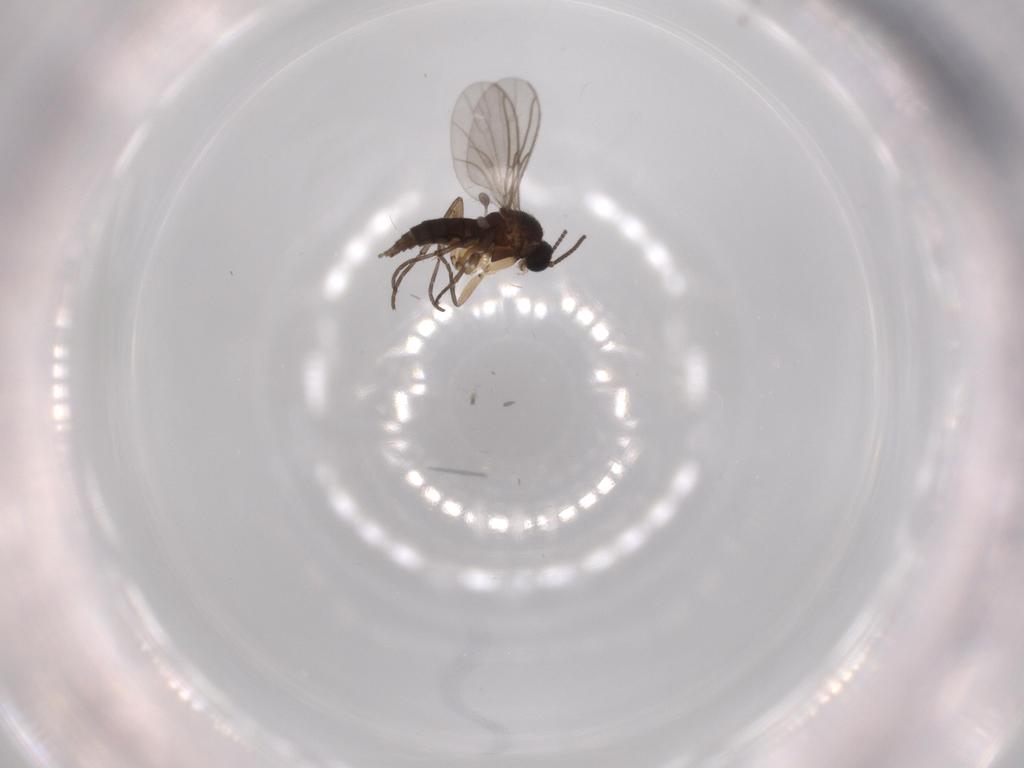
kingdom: Animalia
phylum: Arthropoda
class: Insecta
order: Diptera
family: Sciaridae
